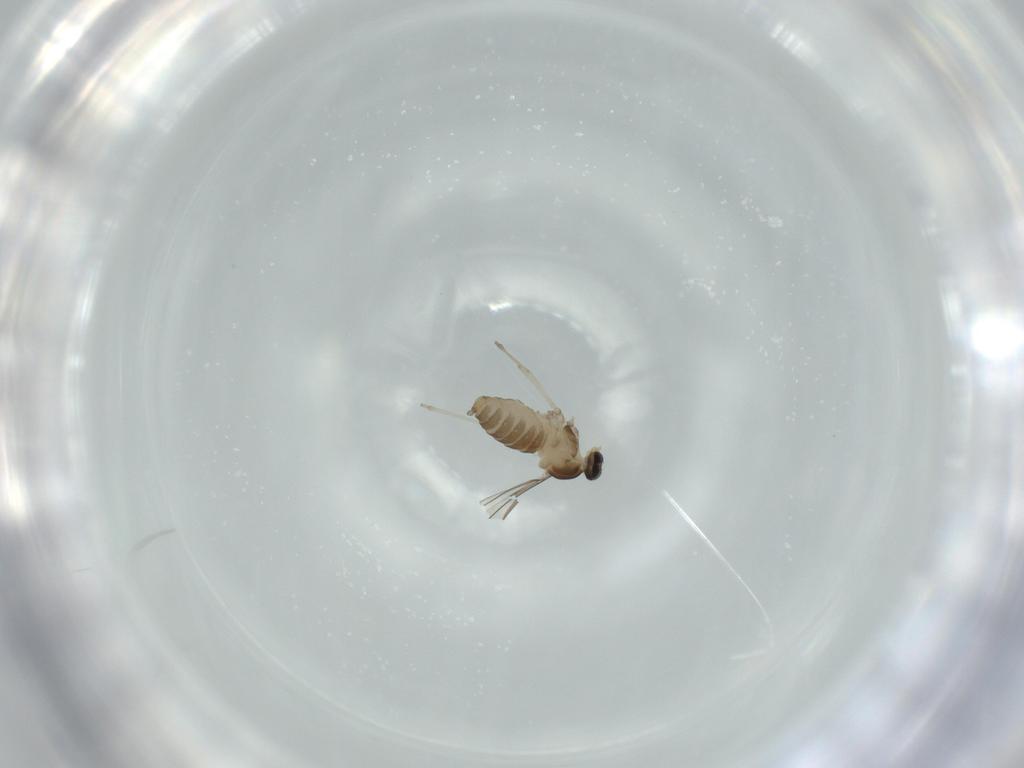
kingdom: Animalia
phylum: Arthropoda
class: Insecta
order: Diptera
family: Cecidomyiidae
